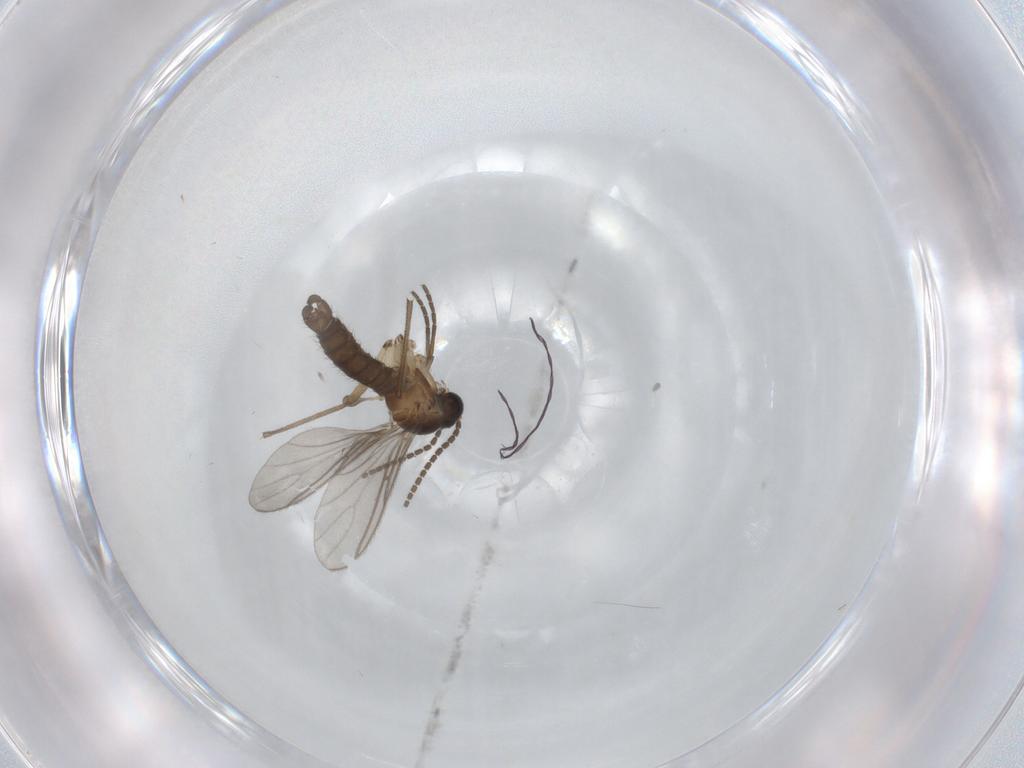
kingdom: Animalia
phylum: Arthropoda
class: Insecta
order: Diptera
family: Sciaridae
